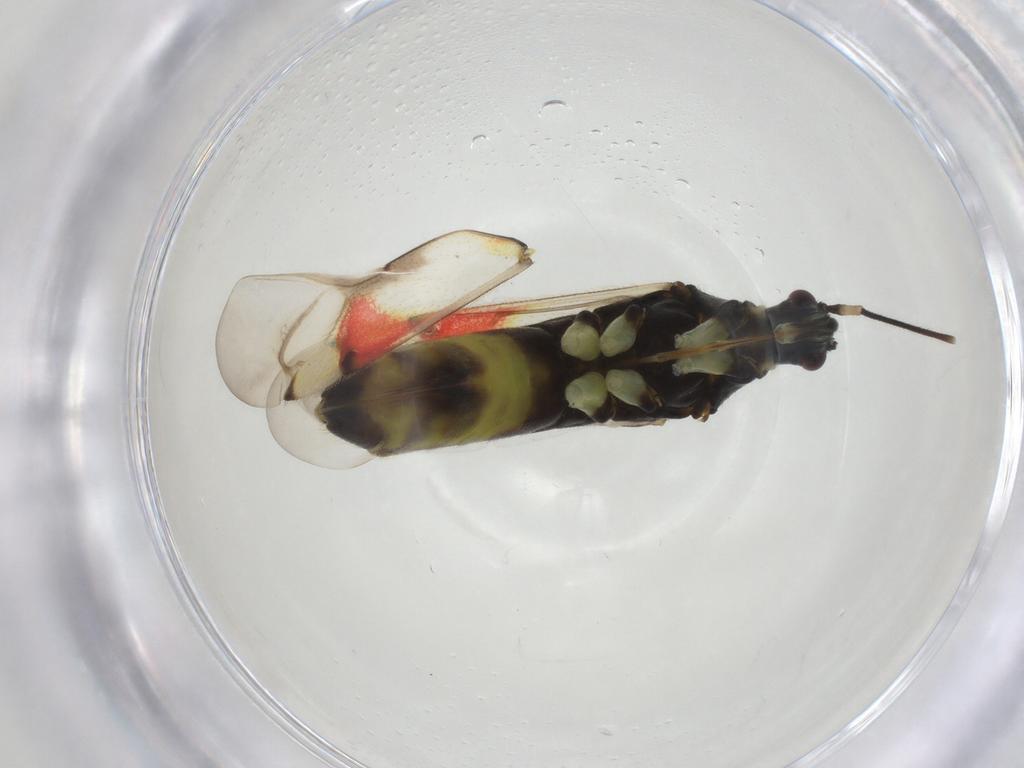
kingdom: Animalia
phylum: Arthropoda
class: Insecta
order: Hemiptera
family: Miridae
